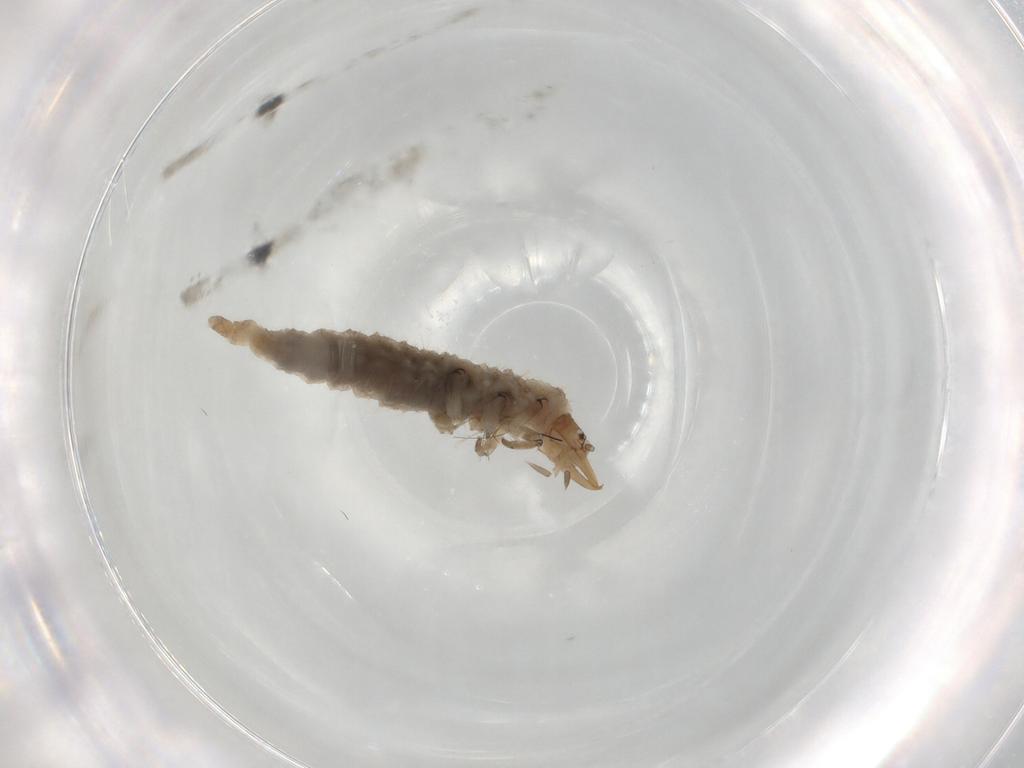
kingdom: Animalia
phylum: Arthropoda
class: Insecta
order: Neuroptera
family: Hemerobiidae
